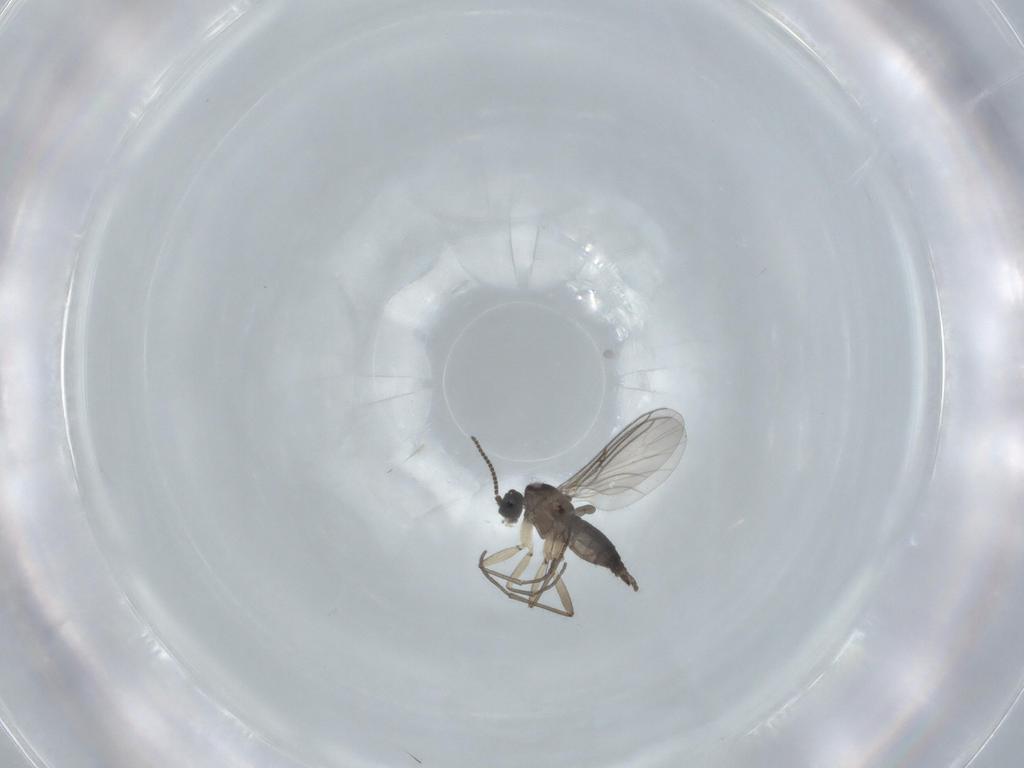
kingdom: Animalia
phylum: Arthropoda
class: Insecta
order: Diptera
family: Sciaridae
